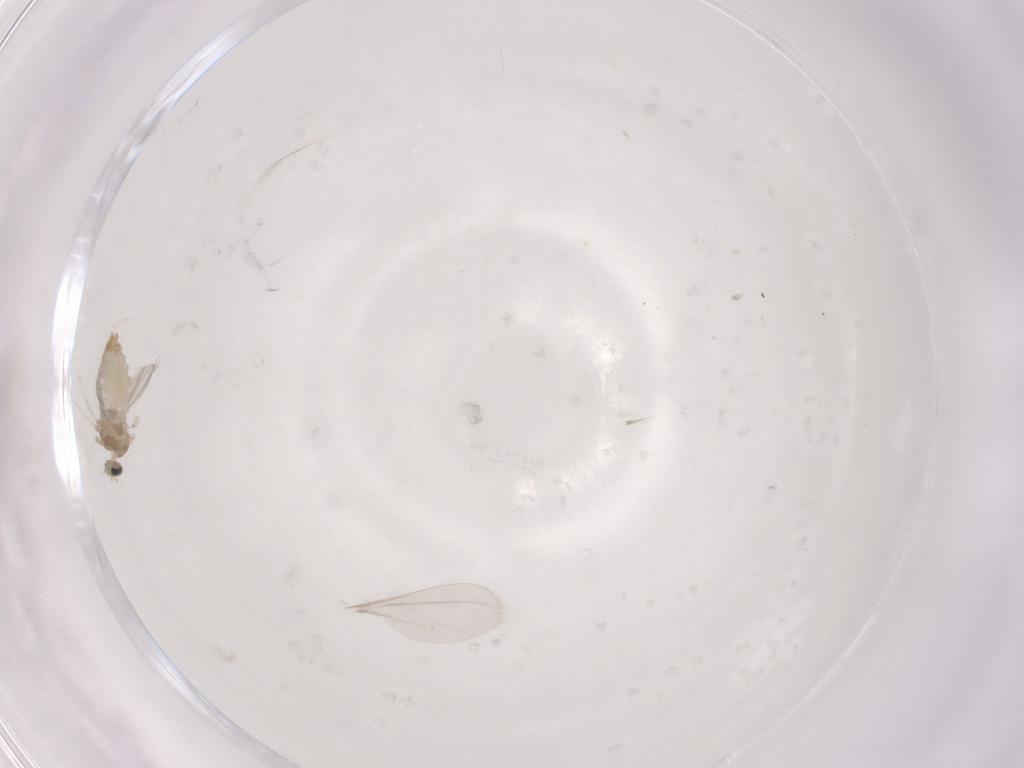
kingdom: Animalia
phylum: Arthropoda
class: Insecta
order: Diptera
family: Cecidomyiidae
